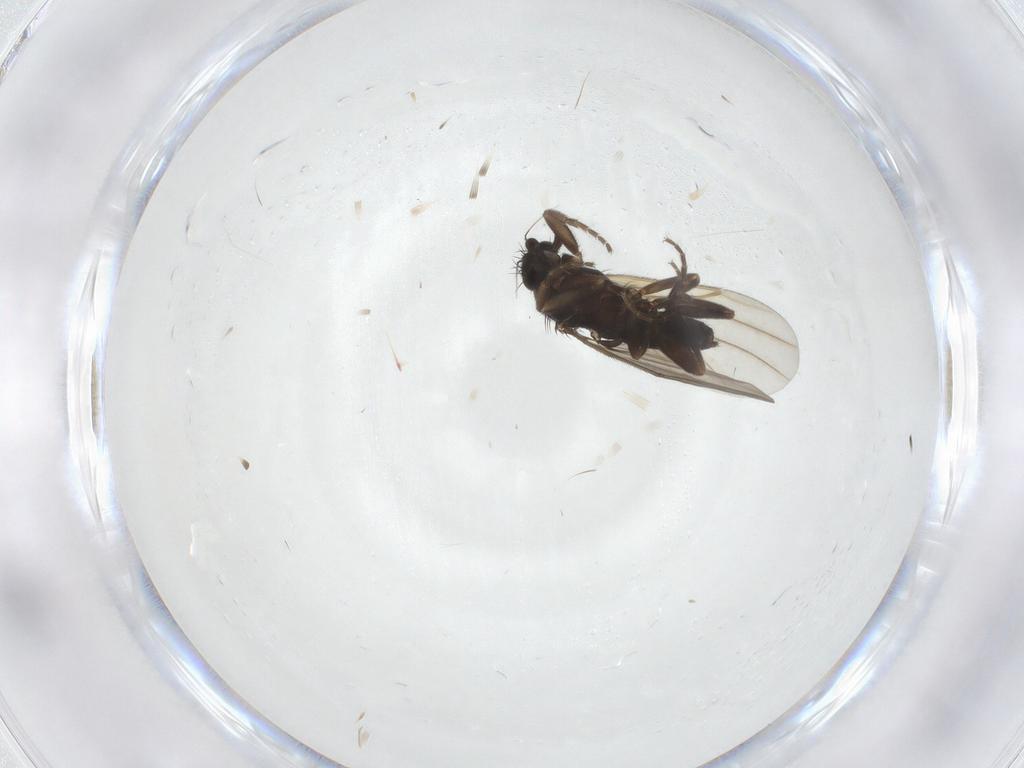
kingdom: Animalia
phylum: Arthropoda
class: Insecta
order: Diptera
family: Phoridae
